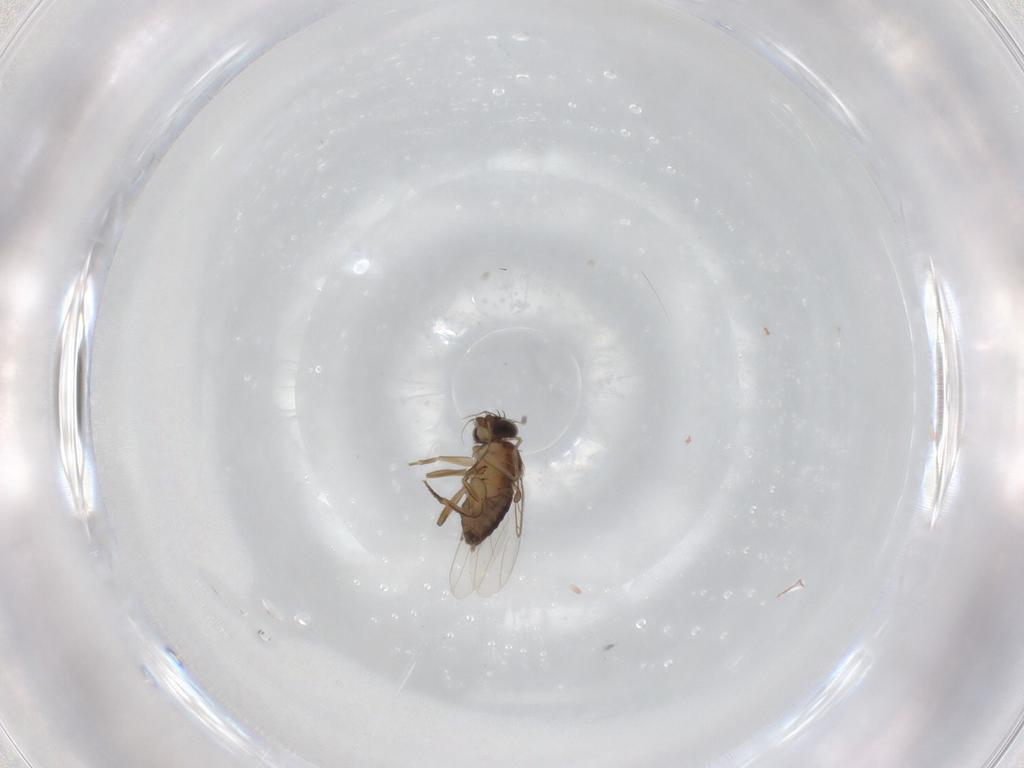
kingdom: Animalia
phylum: Arthropoda
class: Insecta
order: Diptera
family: Phoridae
